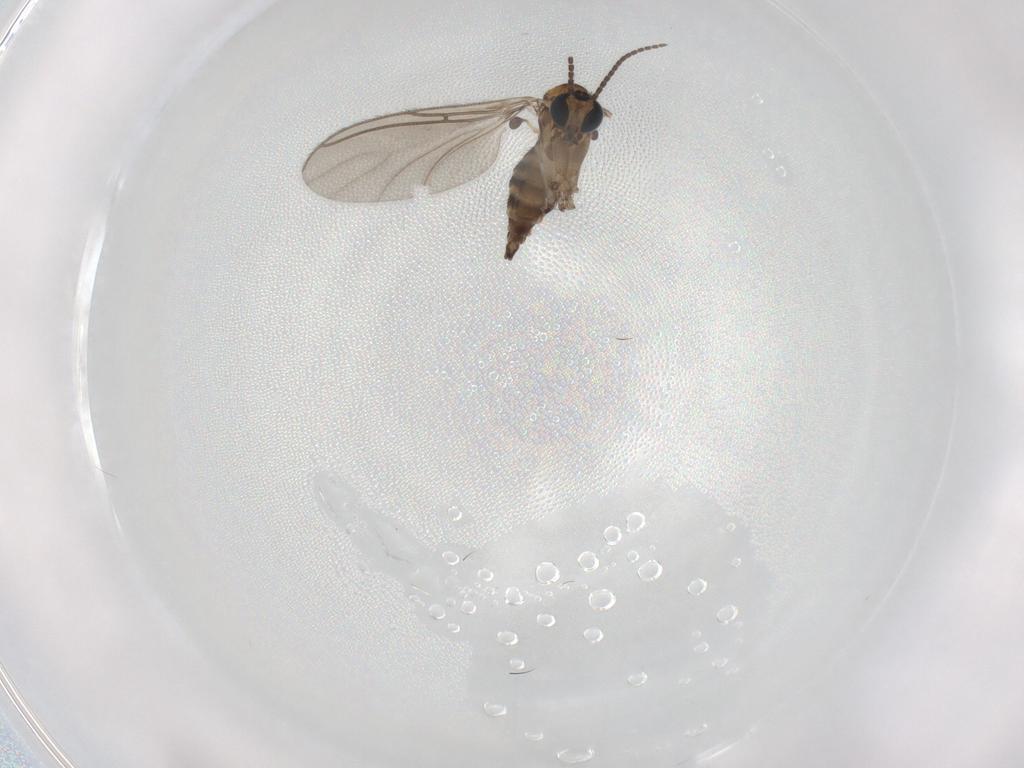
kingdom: Animalia
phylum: Arthropoda
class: Insecta
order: Diptera
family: Sciaridae
